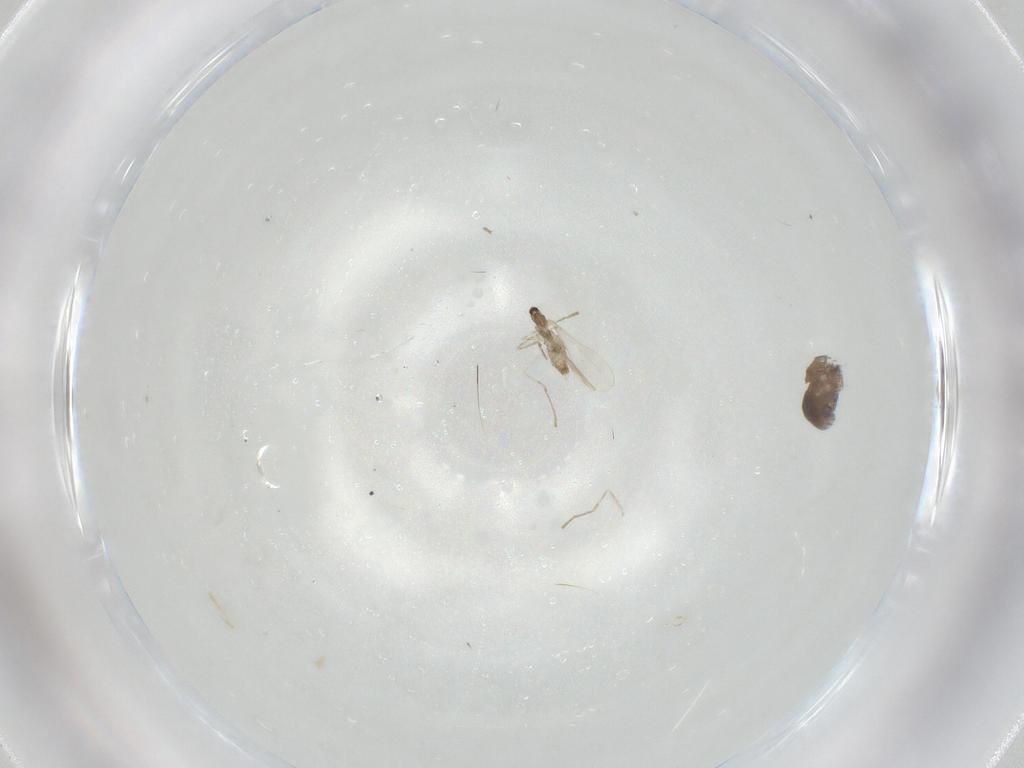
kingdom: Animalia
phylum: Arthropoda
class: Insecta
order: Diptera
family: Cecidomyiidae
